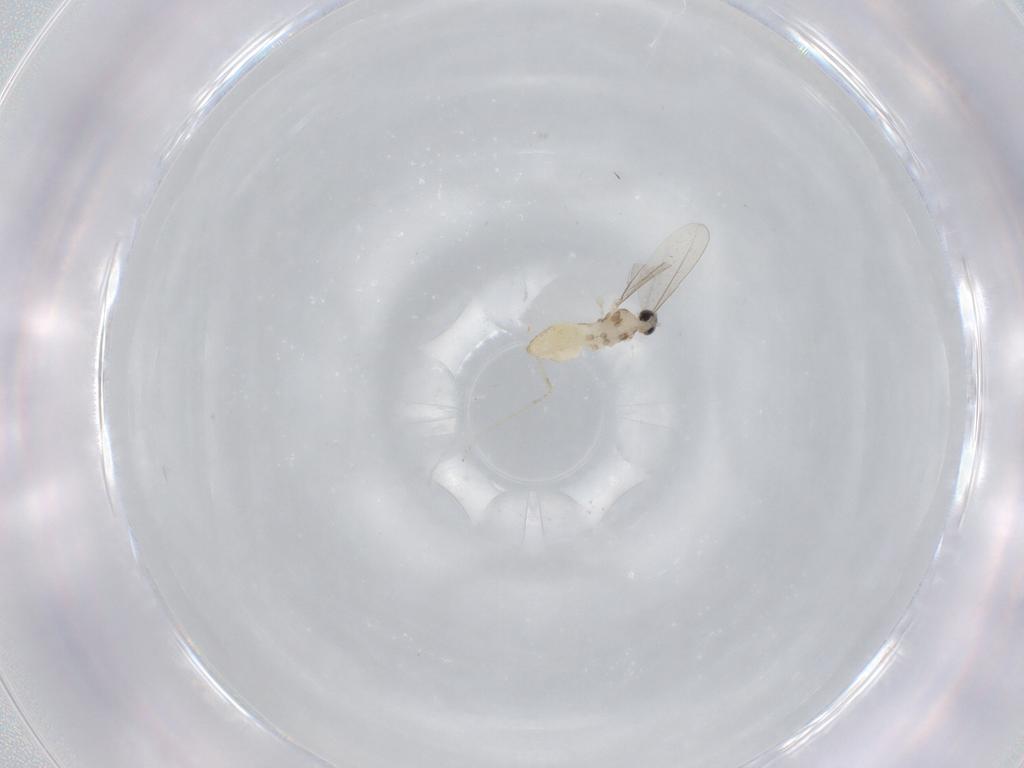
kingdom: Animalia
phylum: Arthropoda
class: Insecta
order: Diptera
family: Cecidomyiidae
